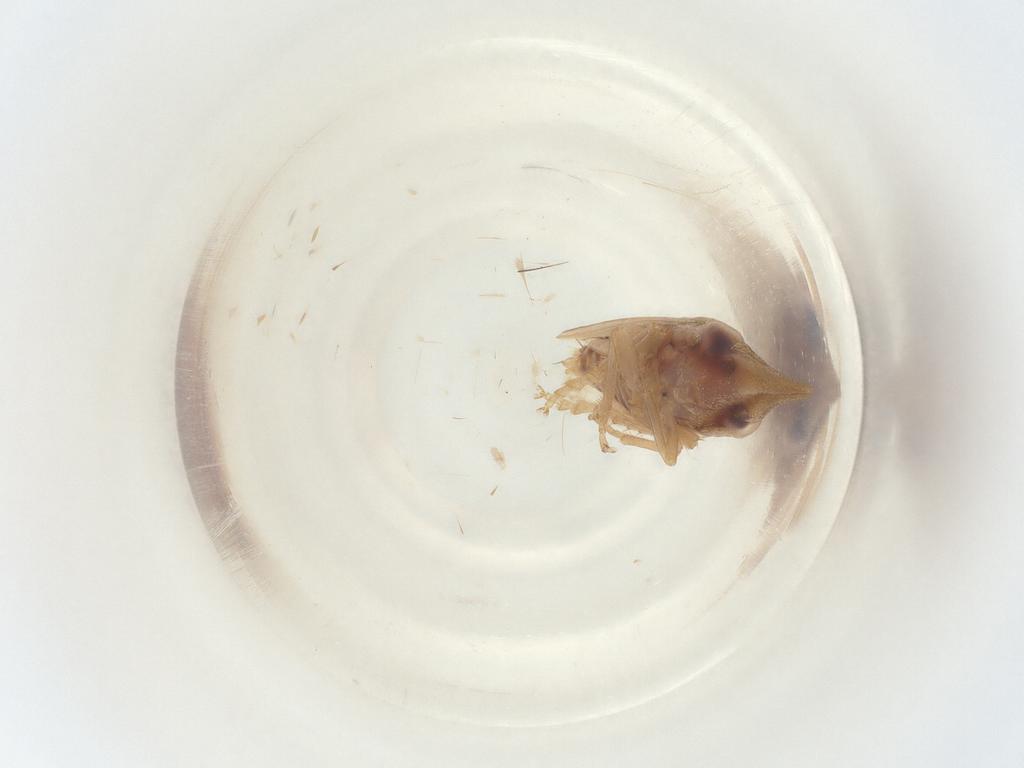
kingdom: Animalia
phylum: Arthropoda
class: Insecta
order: Hemiptera
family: Cicadellidae
